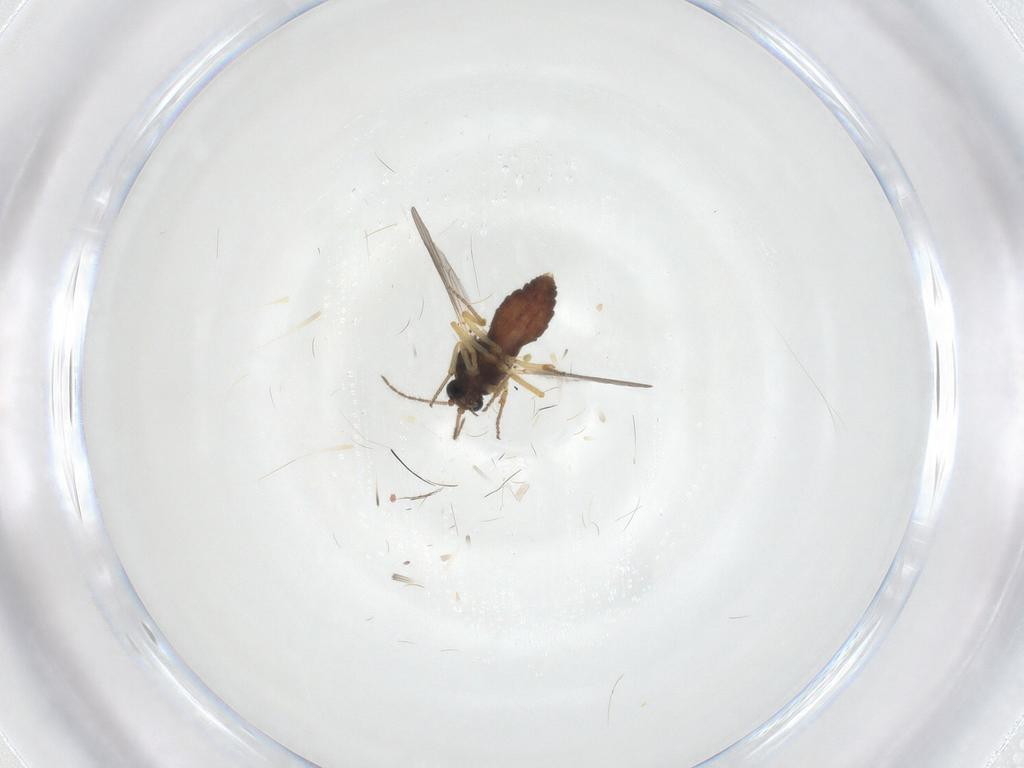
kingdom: Animalia
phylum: Arthropoda
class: Insecta
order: Diptera
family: Ceratopogonidae
